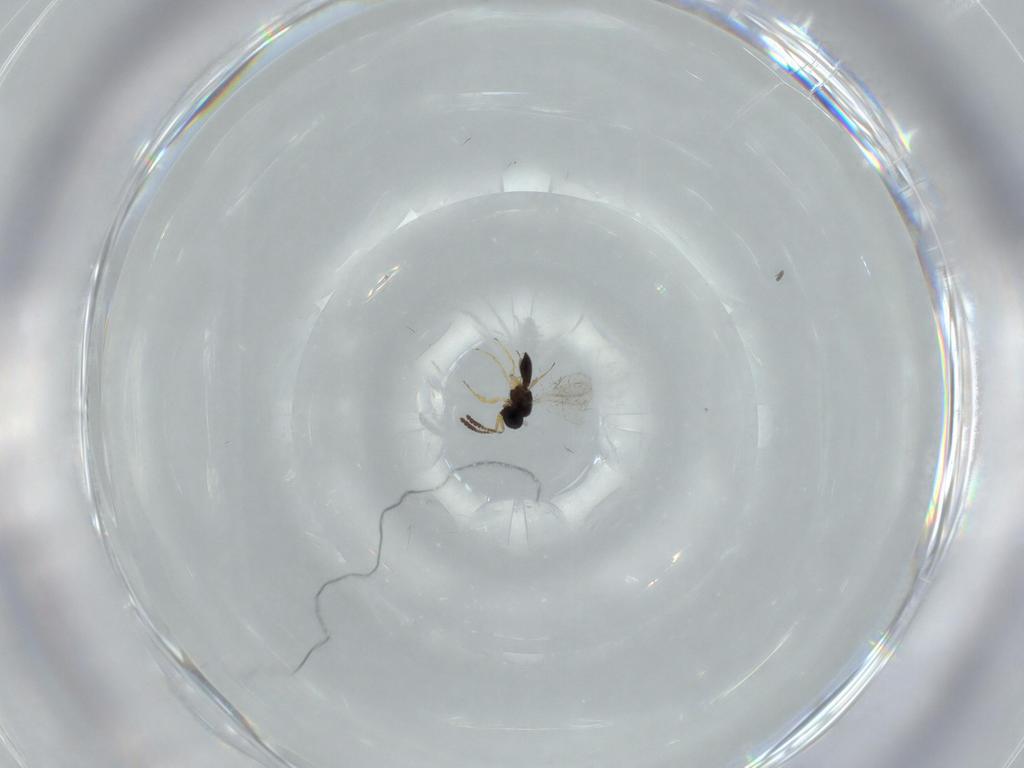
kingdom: Animalia
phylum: Arthropoda
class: Insecta
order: Hymenoptera
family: Scelionidae
